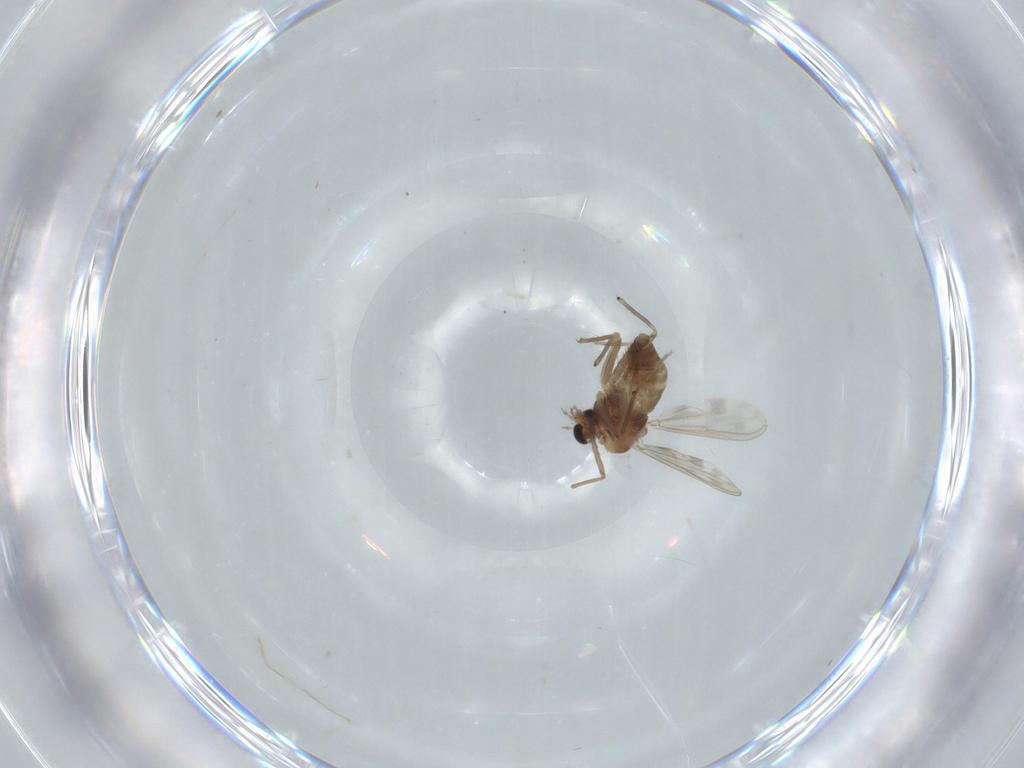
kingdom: Animalia
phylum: Arthropoda
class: Insecta
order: Diptera
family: Chironomidae
